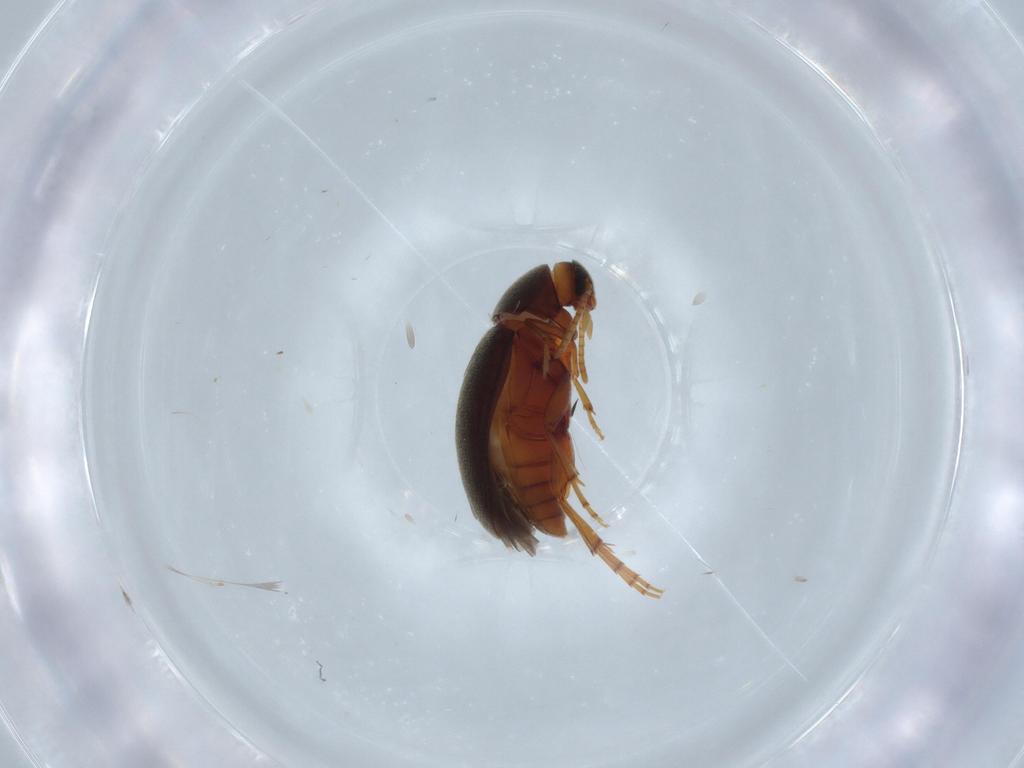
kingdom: Animalia
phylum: Arthropoda
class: Insecta
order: Coleoptera
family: Scraptiidae
